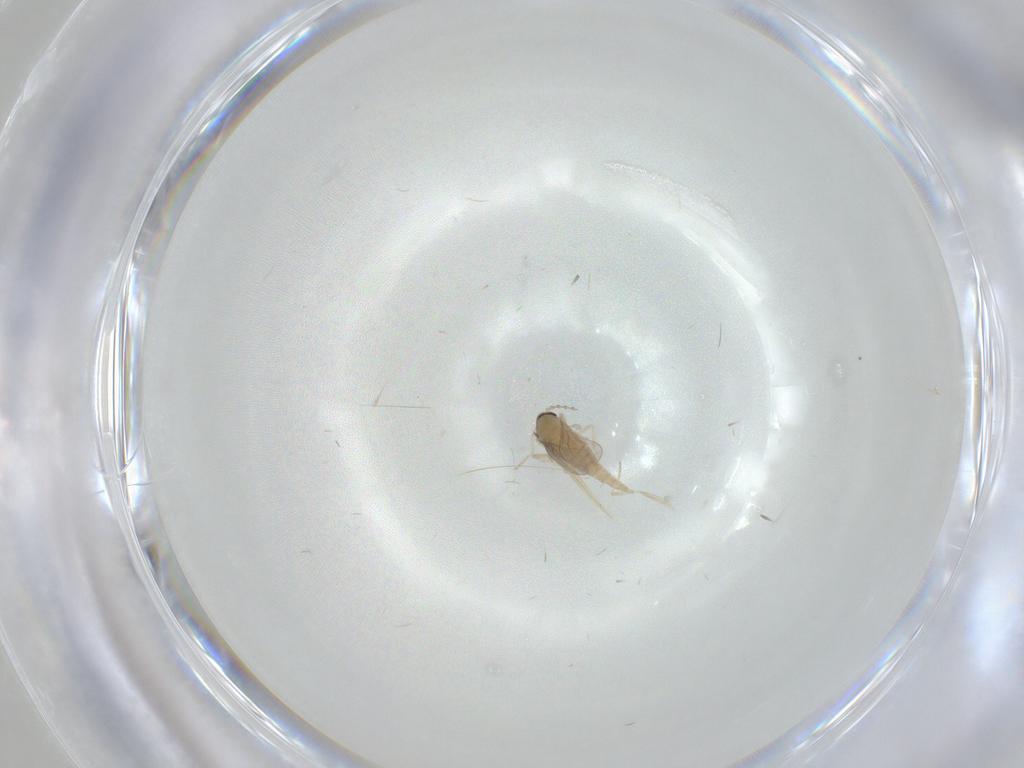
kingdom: Animalia
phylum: Arthropoda
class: Insecta
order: Diptera
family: Cecidomyiidae
